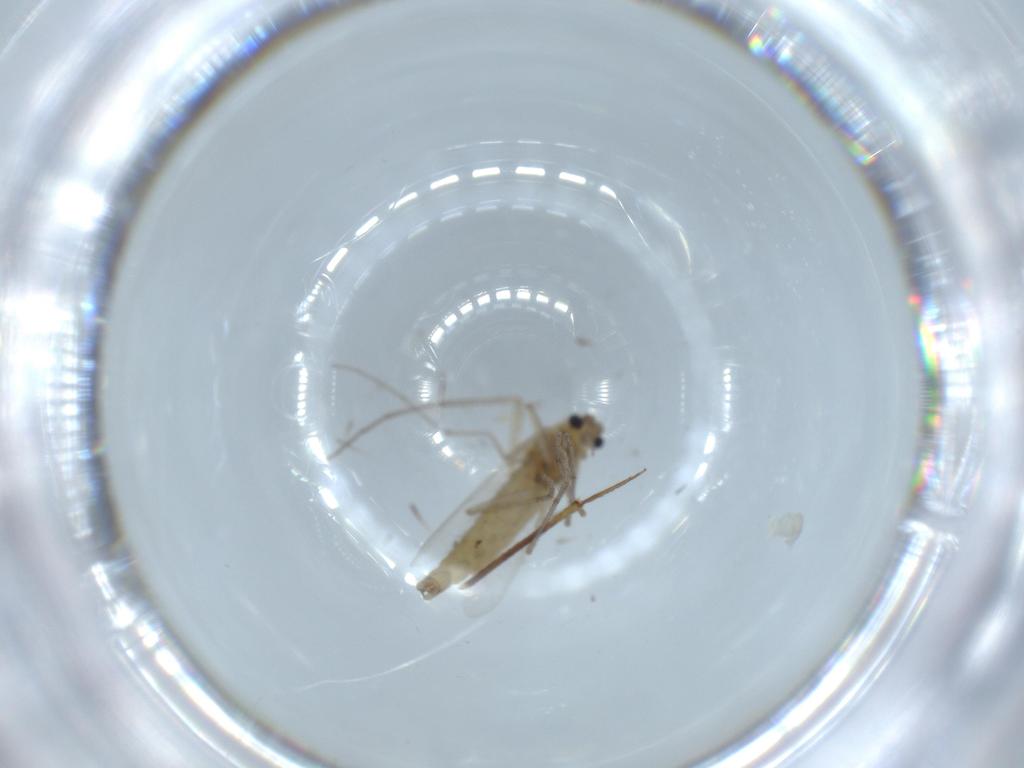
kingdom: Animalia
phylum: Arthropoda
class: Insecta
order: Diptera
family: Chironomidae
